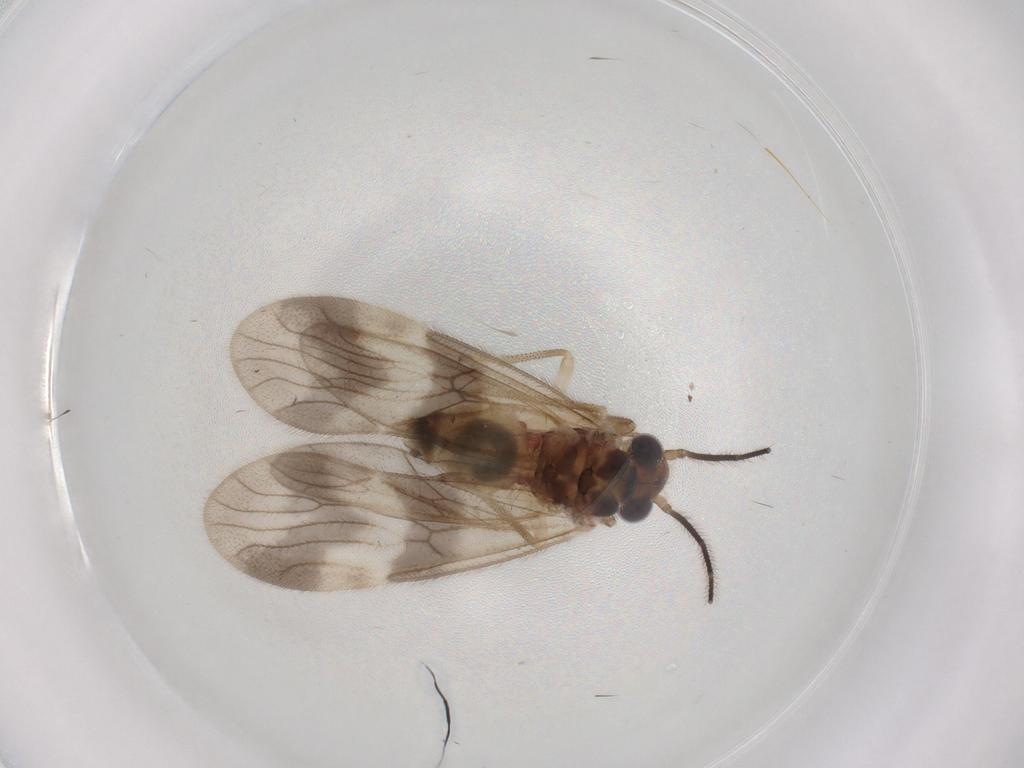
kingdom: Animalia
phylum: Arthropoda
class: Insecta
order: Psocodea
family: Amphipsocidae
